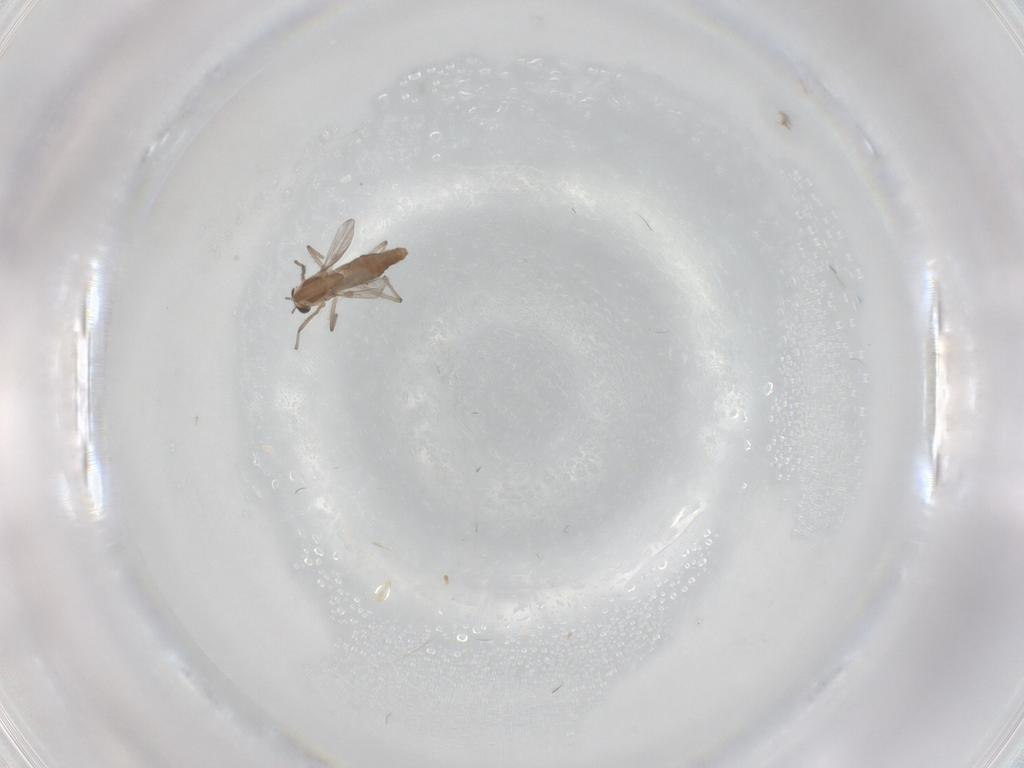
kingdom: Animalia
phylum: Arthropoda
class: Insecta
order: Diptera
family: Chironomidae
